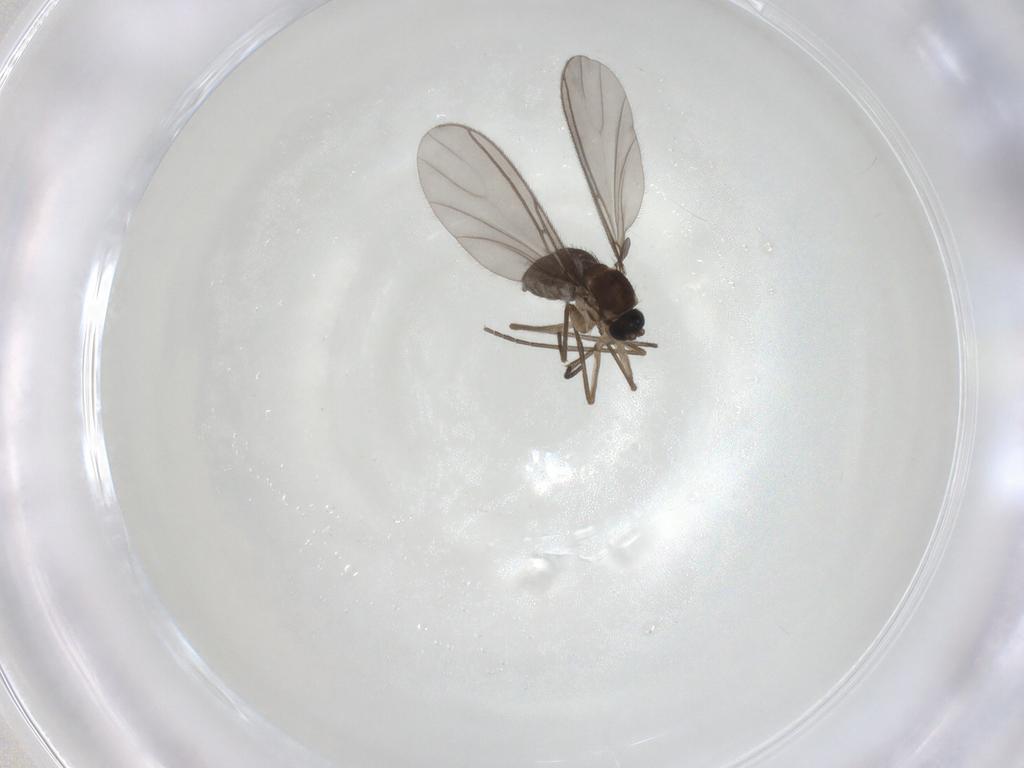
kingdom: Animalia
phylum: Arthropoda
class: Insecta
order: Diptera
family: Sciaridae
